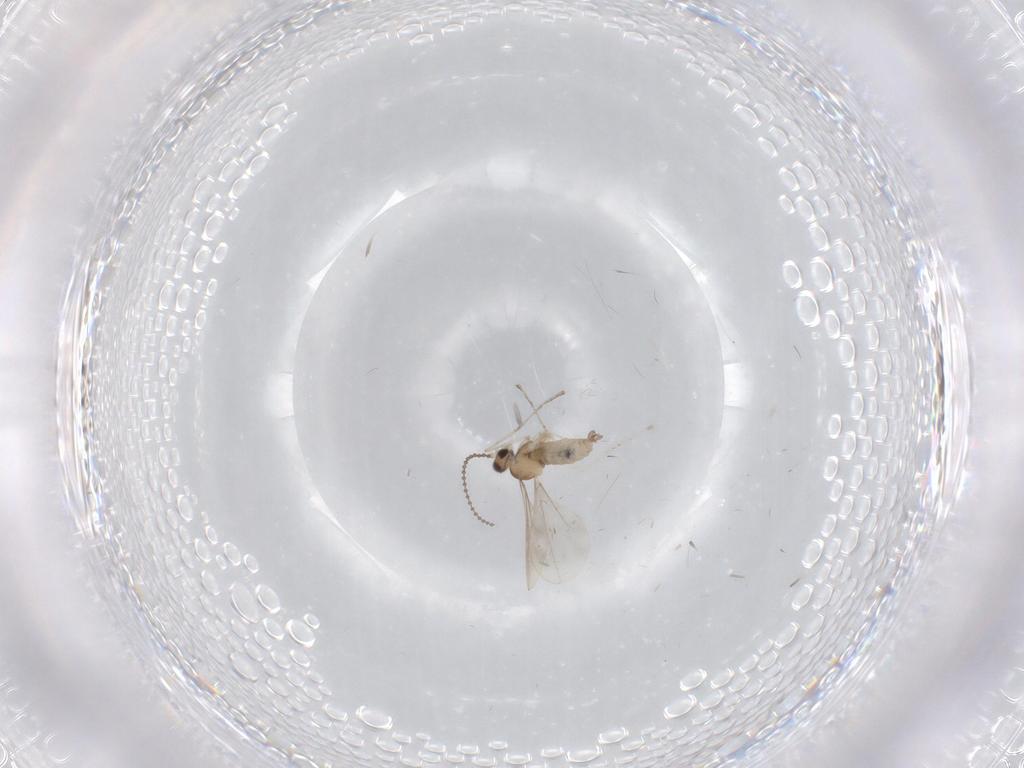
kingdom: Animalia
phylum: Arthropoda
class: Insecta
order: Diptera
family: Cecidomyiidae
